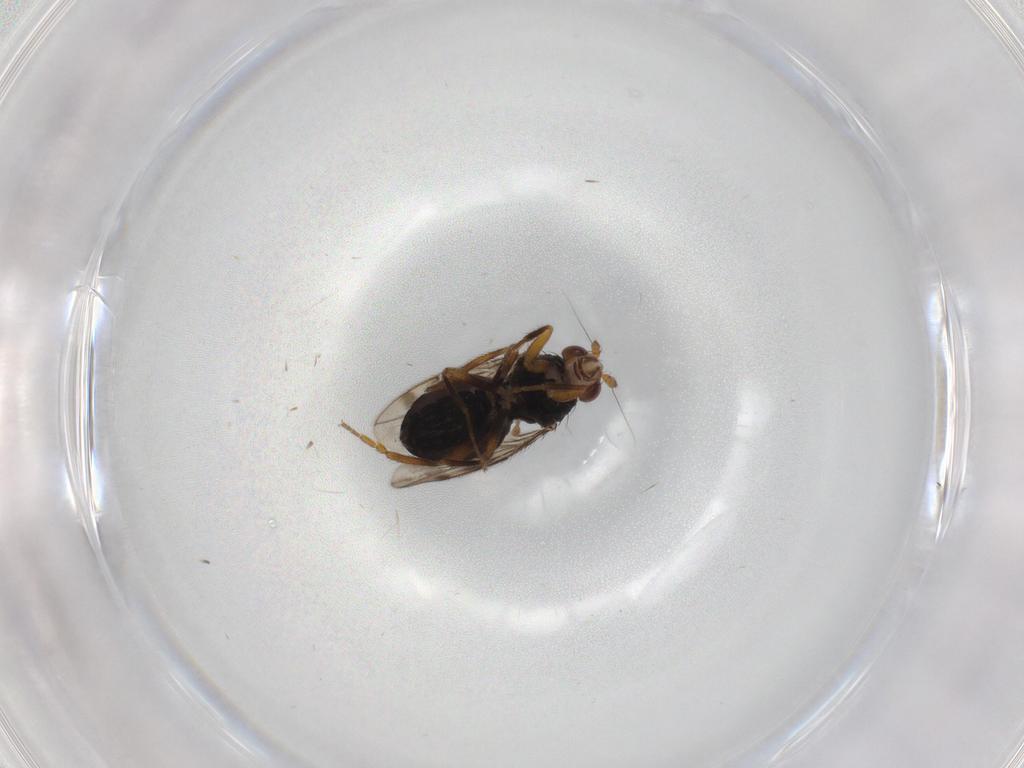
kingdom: Animalia
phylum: Arthropoda
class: Insecta
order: Diptera
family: Sphaeroceridae
